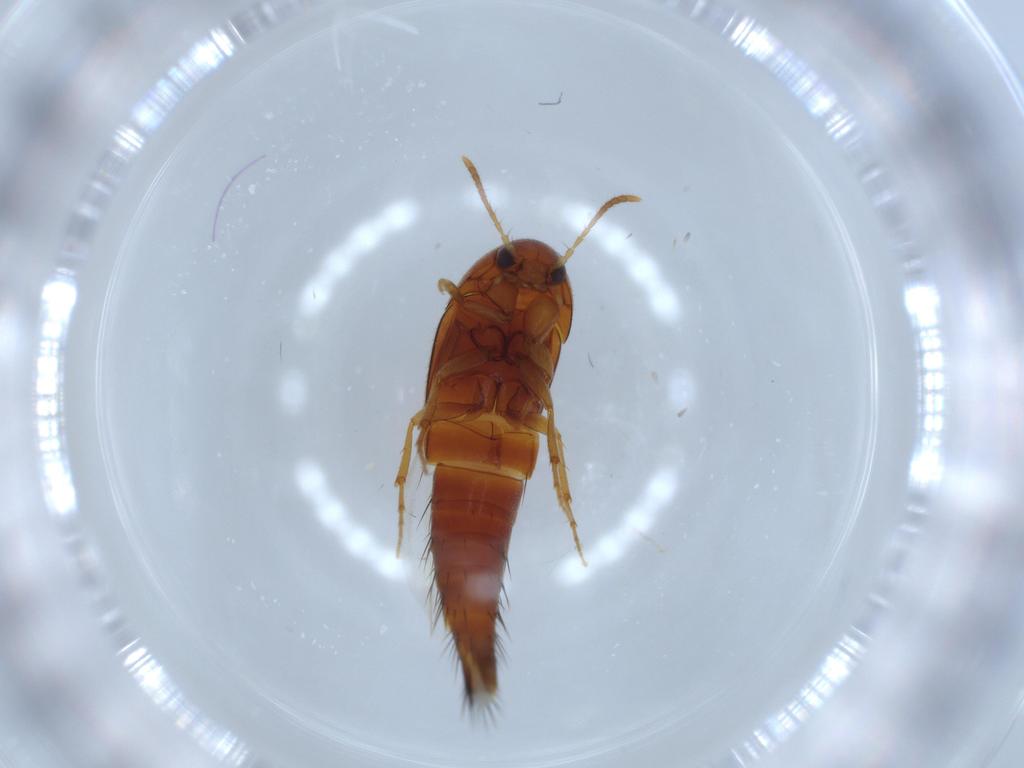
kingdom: Animalia
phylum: Arthropoda
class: Insecta
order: Coleoptera
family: Staphylinidae
